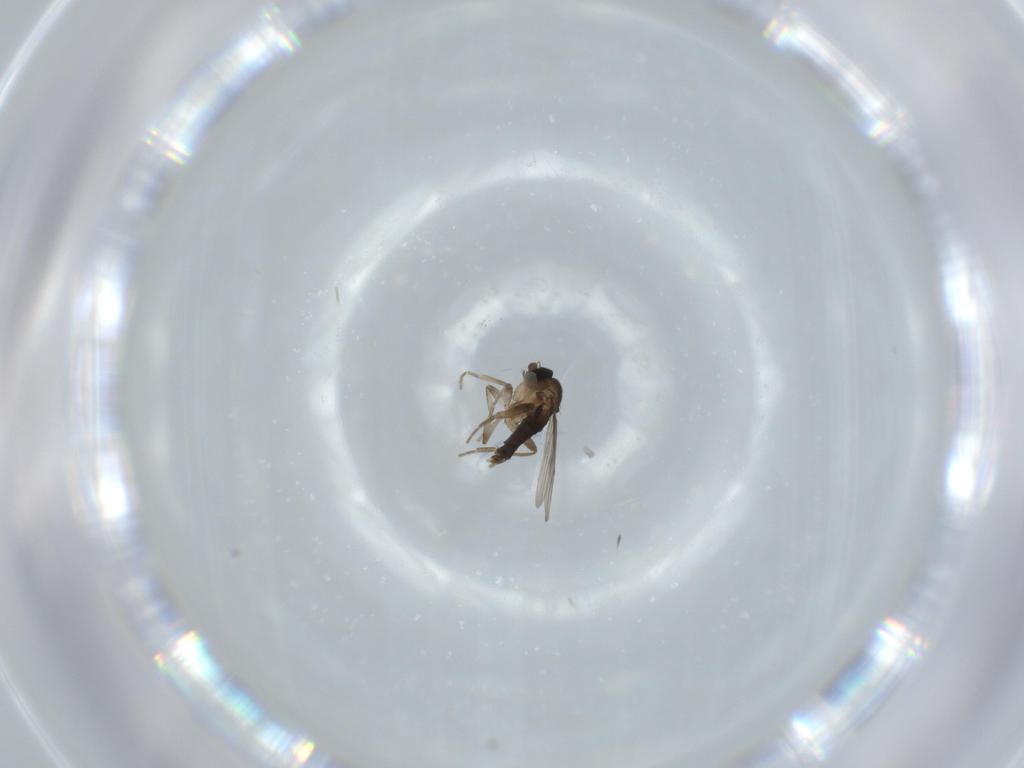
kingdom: Animalia
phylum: Arthropoda
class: Insecta
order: Diptera
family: Phoridae
